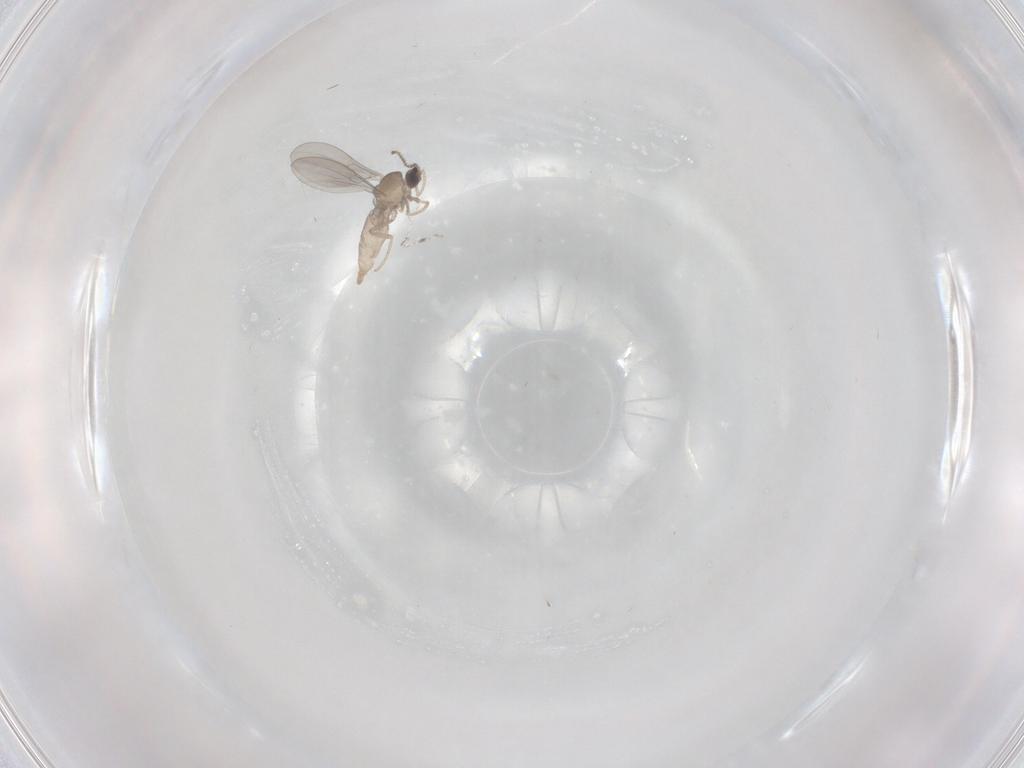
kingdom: Animalia
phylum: Arthropoda
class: Insecta
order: Diptera
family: Cecidomyiidae
